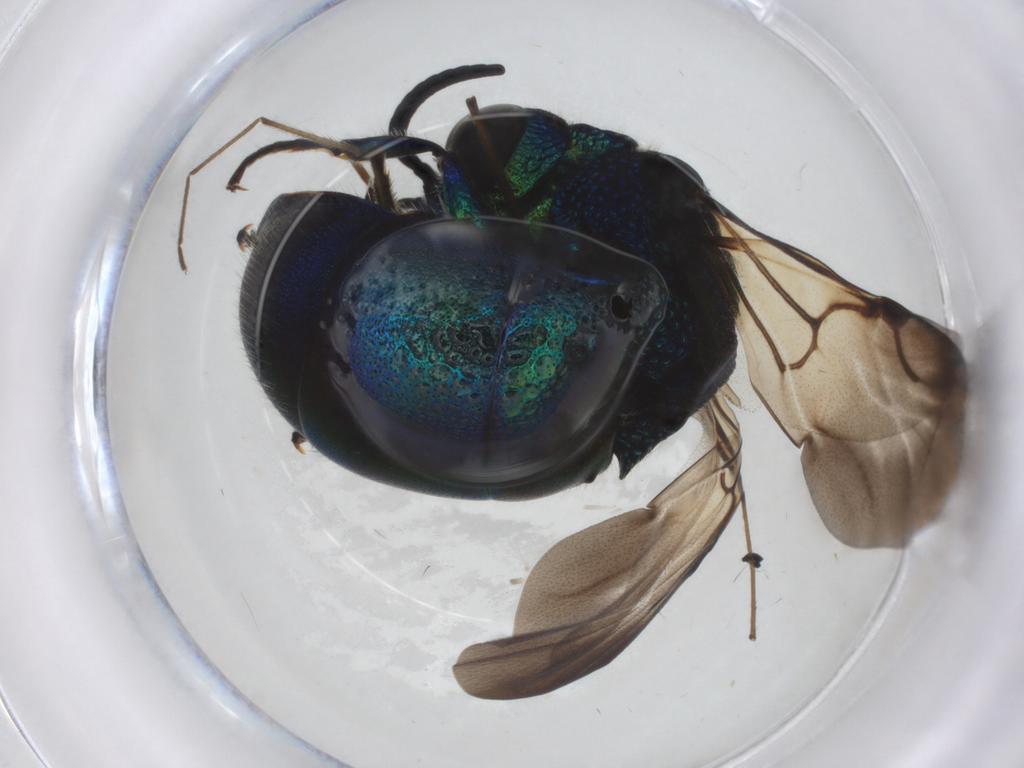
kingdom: Animalia
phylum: Arthropoda
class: Insecta
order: Hymenoptera
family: Chrysididae
